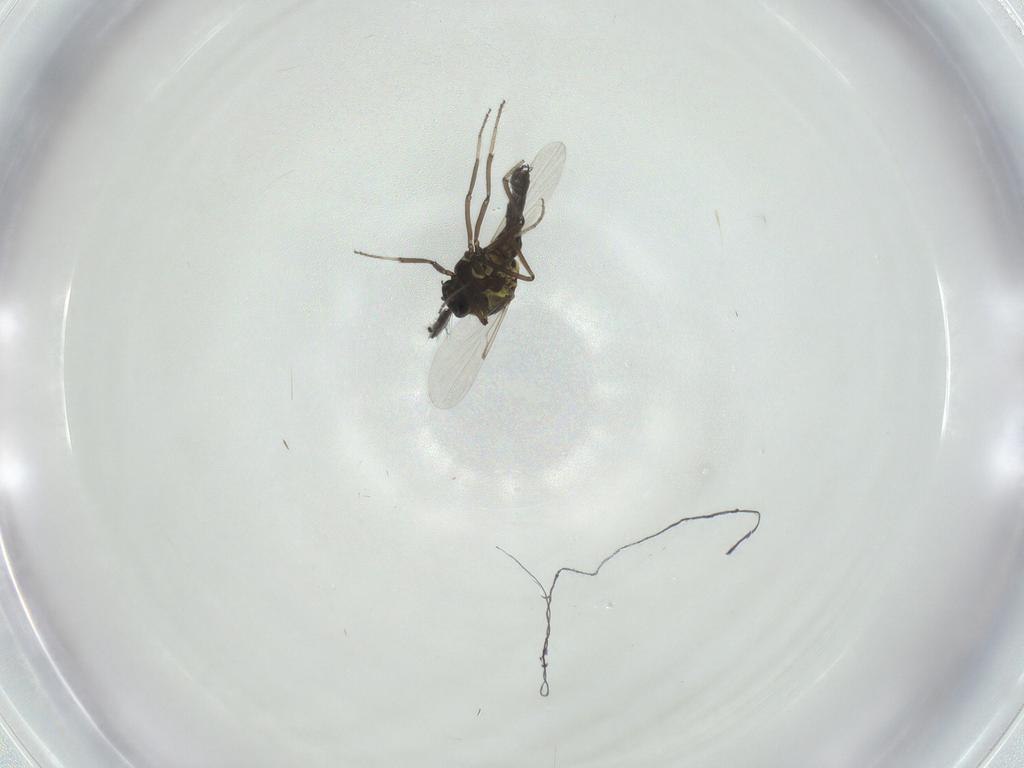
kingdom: Animalia
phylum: Arthropoda
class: Insecta
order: Diptera
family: Ceratopogonidae
